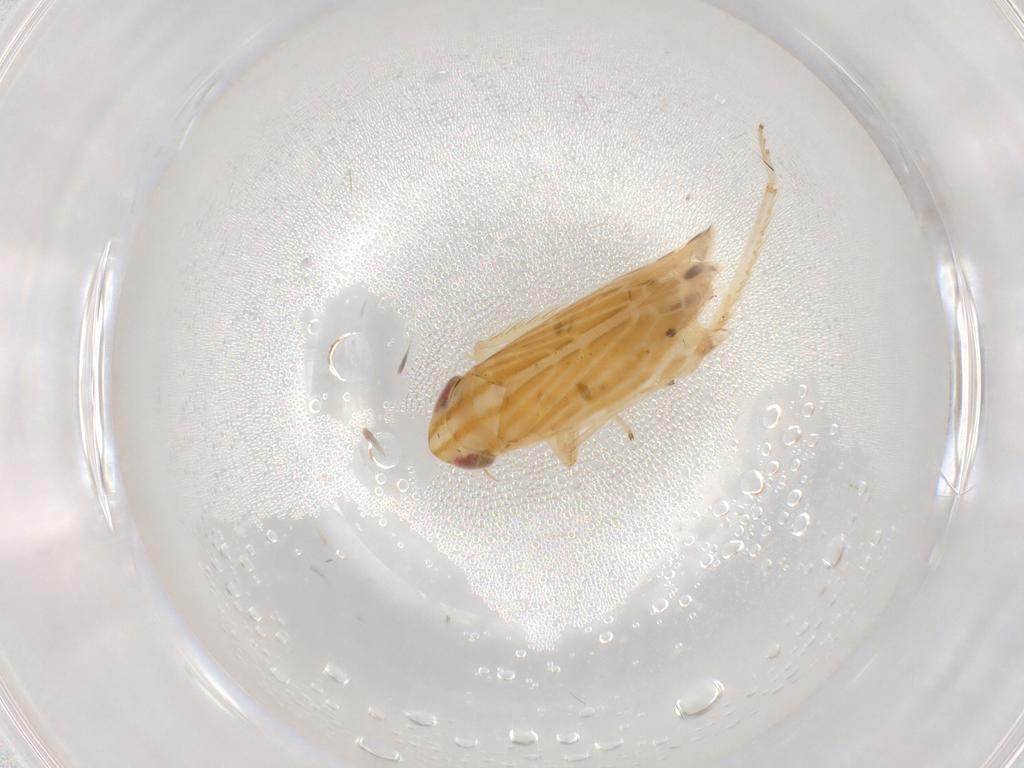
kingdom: Animalia
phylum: Arthropoda
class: Insecta
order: Hemiptera
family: Cicadellidae
